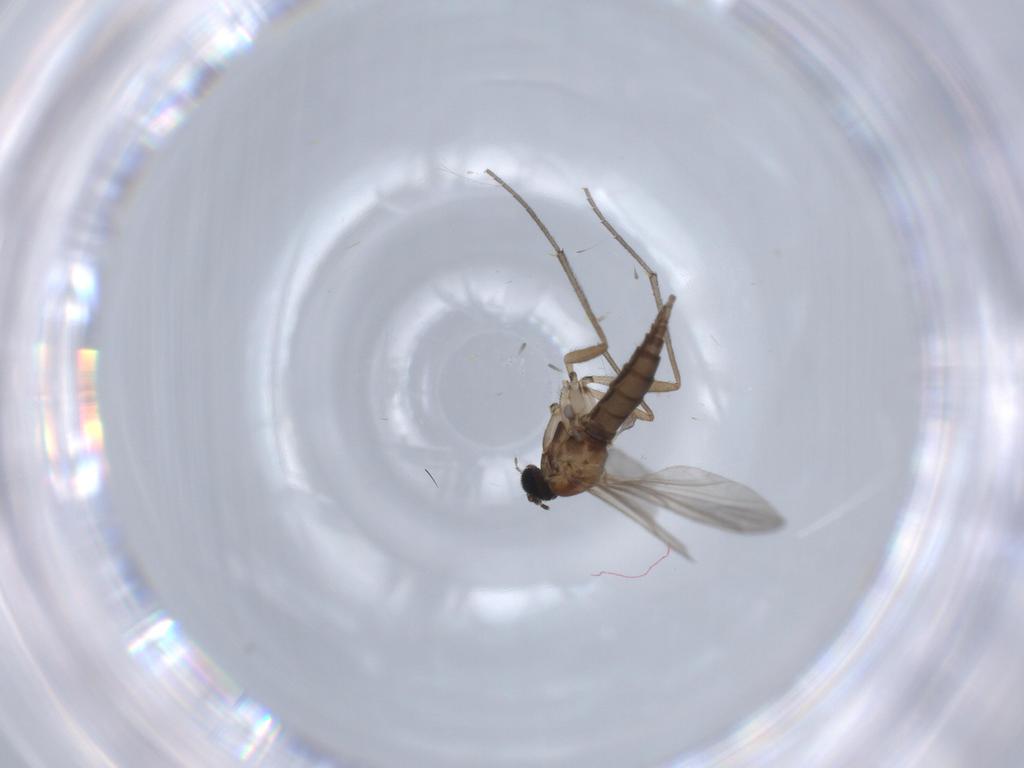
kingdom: Animalia
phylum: Arthropoda
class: Insecta
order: Diptera
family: Sciaridae
